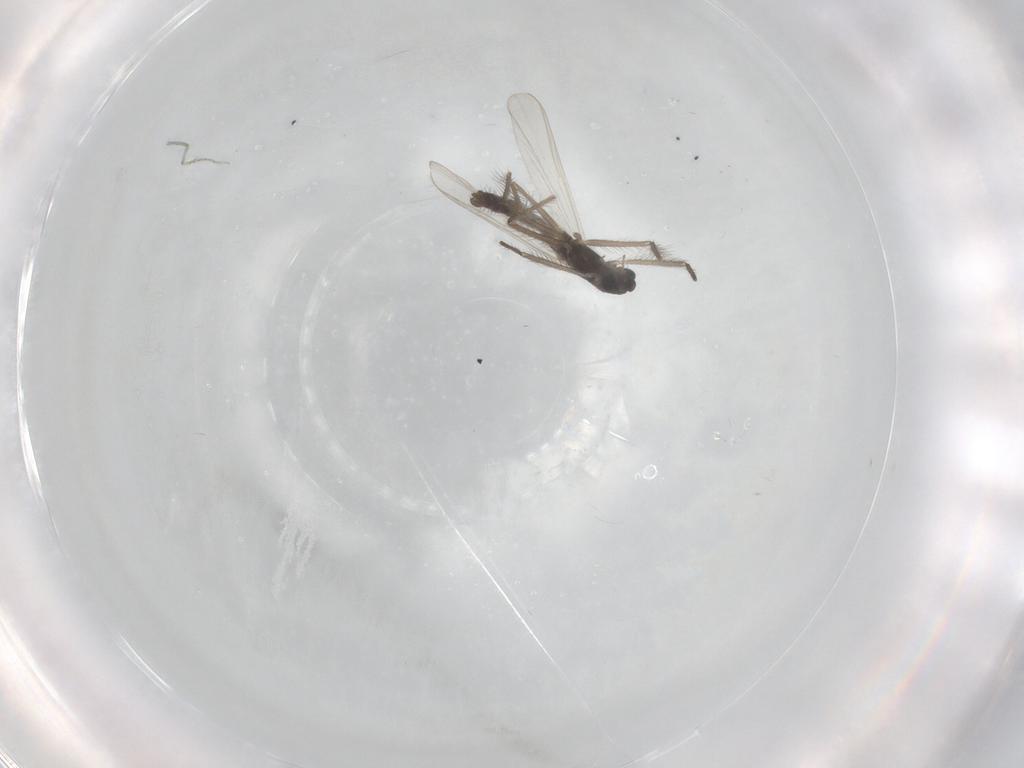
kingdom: Animalia
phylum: Arthropoda
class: Insecta
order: Diptera
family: Chironomidae
